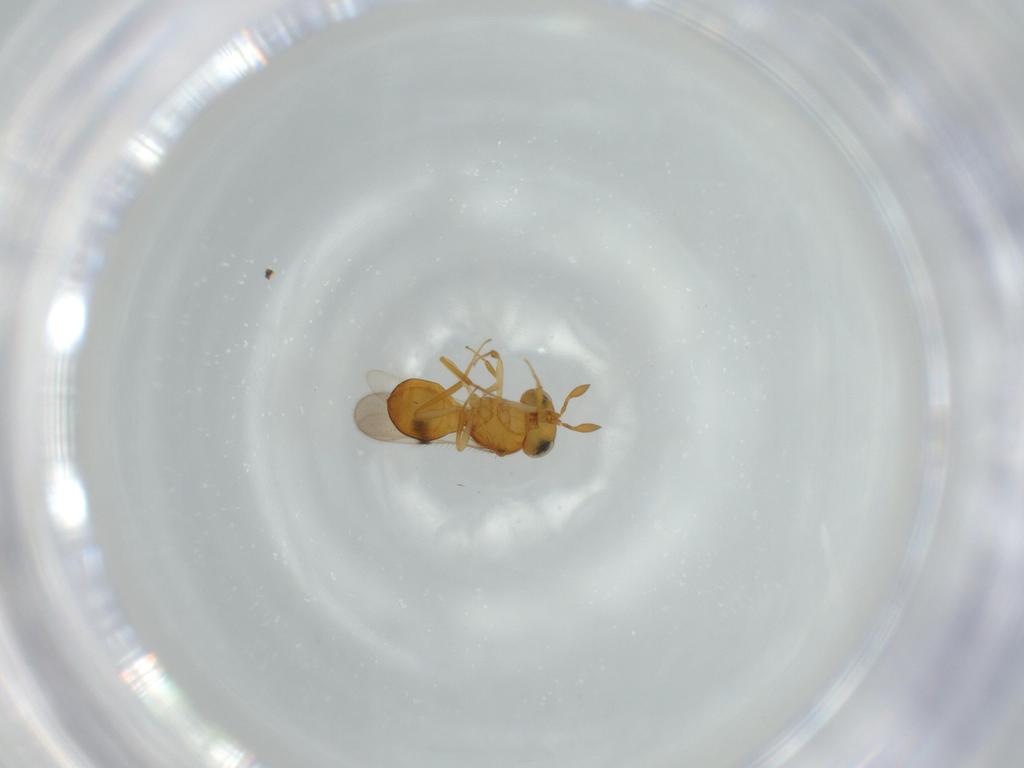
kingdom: Animalia
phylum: Arthropoda
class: Insecta
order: Hymenoptera
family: Scelionidae
